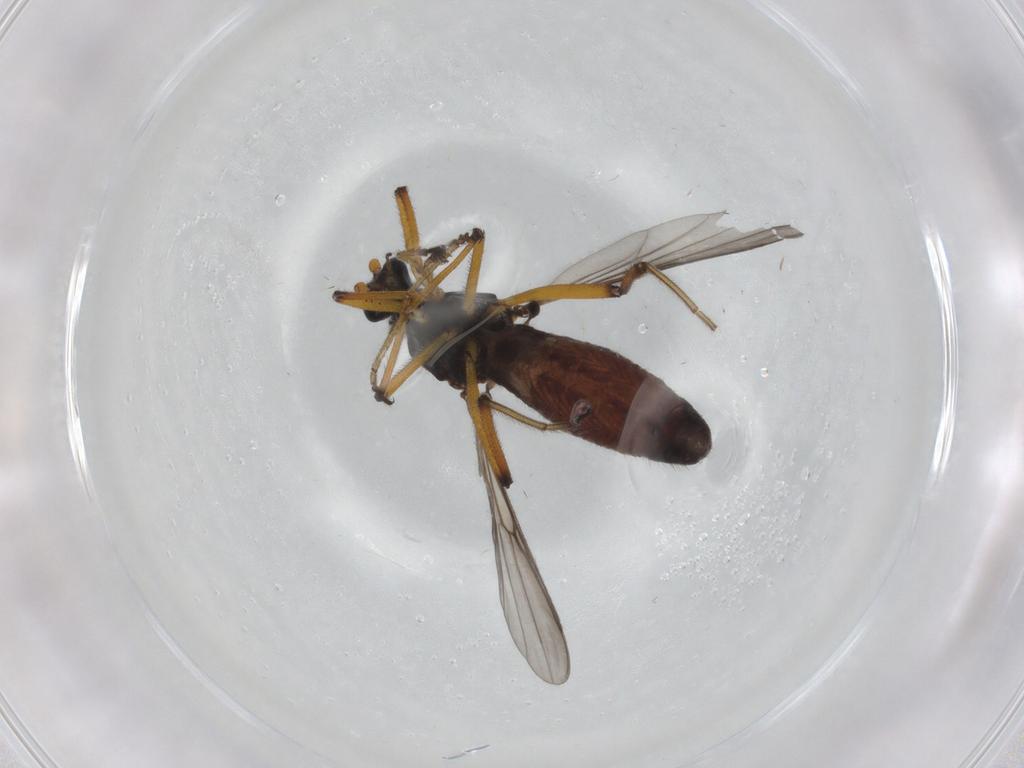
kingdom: Animalia
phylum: Arthropoda
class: Insecta
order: Diptera
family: Ceratopogonidae
